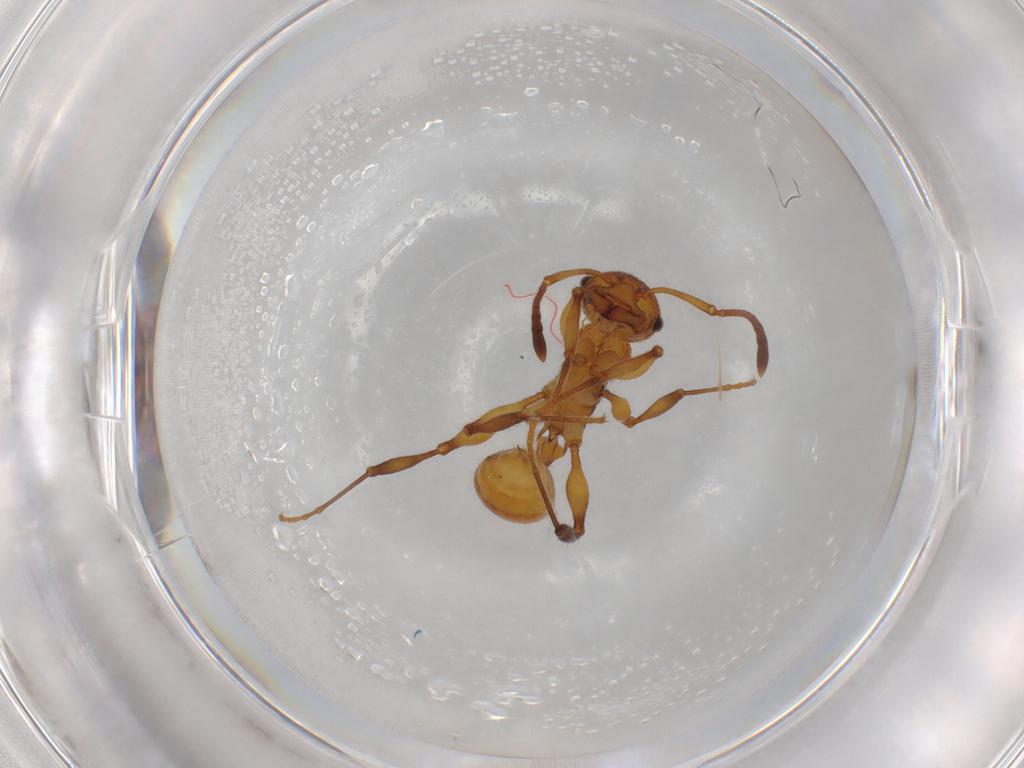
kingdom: Animalia
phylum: Arthropoda
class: Insecta
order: Hymenoptera
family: Formicidae
